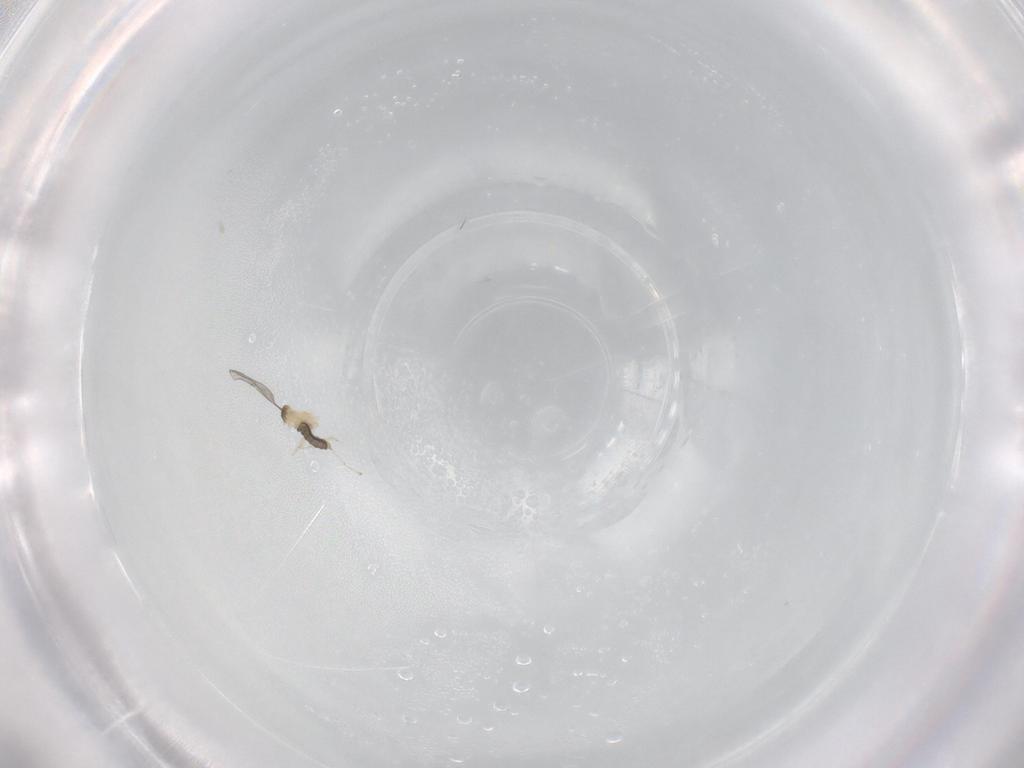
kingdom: Animalia
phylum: Arthropoda
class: Insecta
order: Diptera
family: Cecidomyiidae
